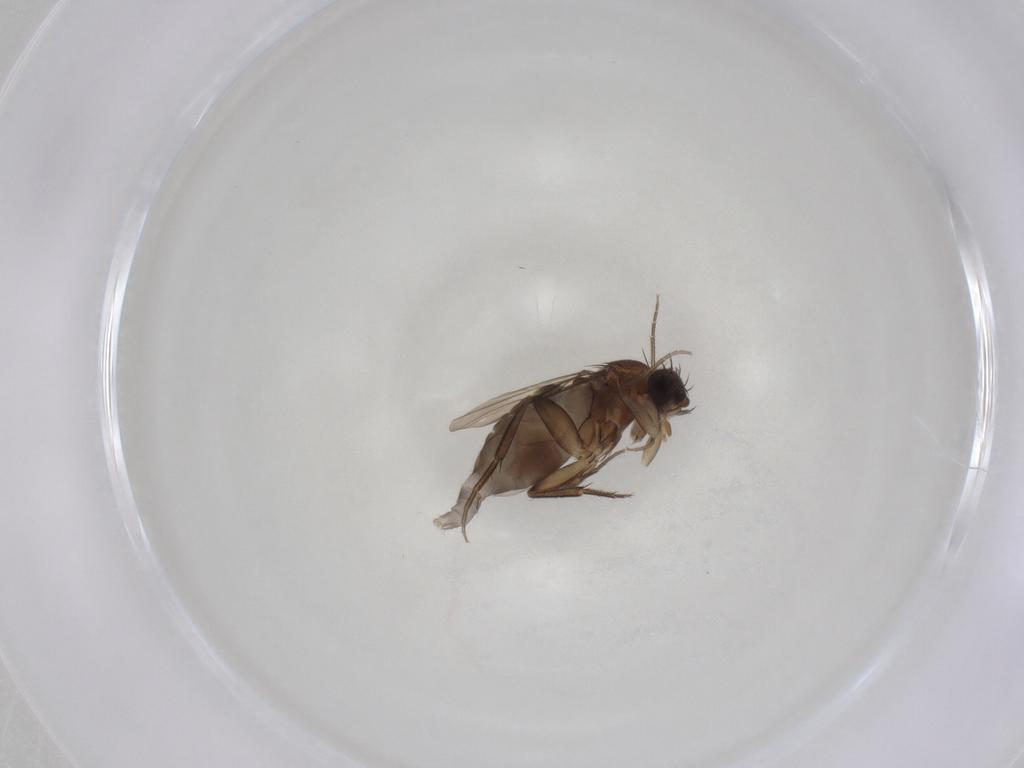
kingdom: Animalia
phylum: Arthropoda
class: Insecta
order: Diptera
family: Phoridae
